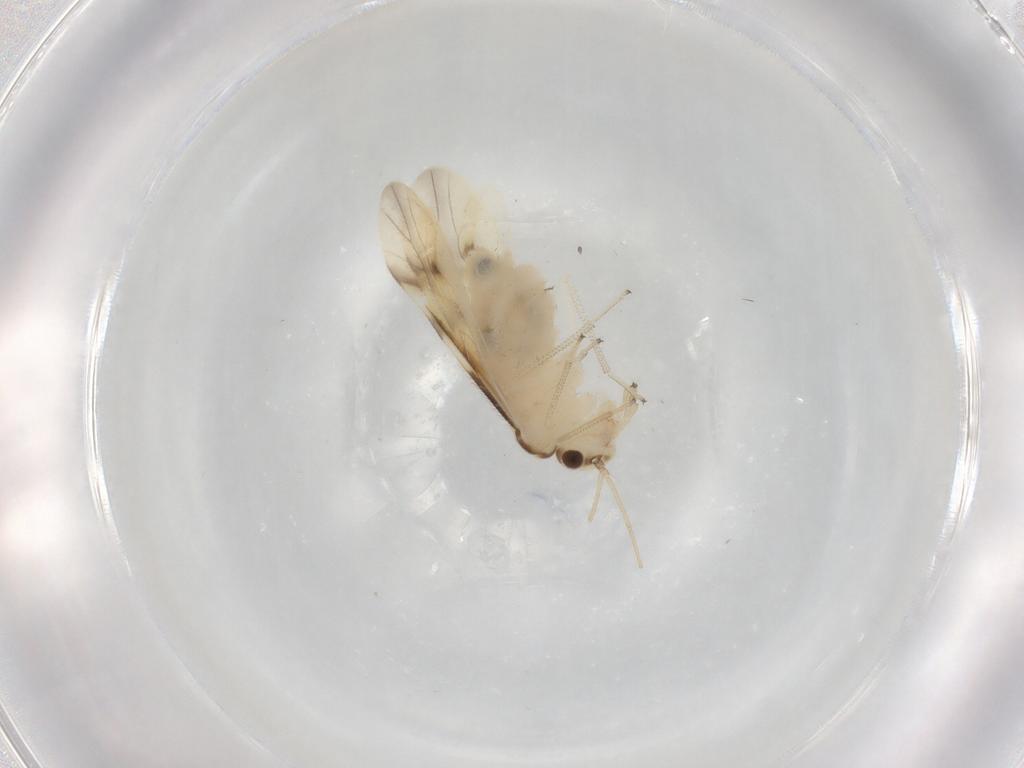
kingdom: Animalia
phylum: Arthropoda
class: Insecta
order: Psocodea
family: Caeciliusidae
